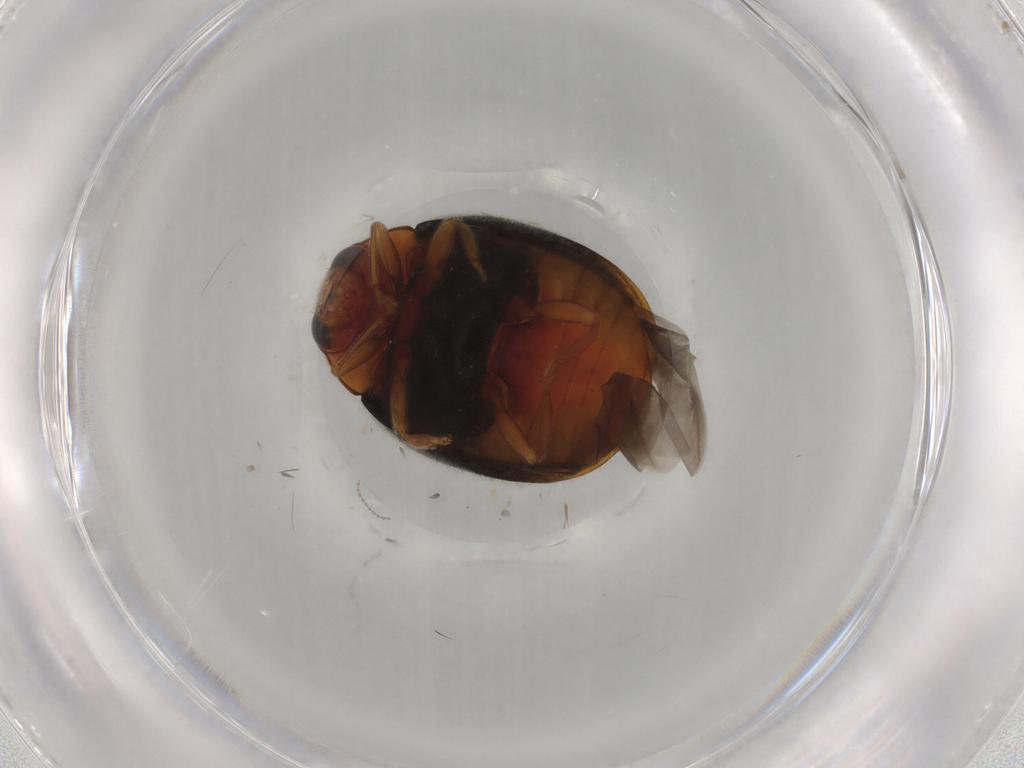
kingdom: Animalia
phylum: Arthropoda
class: Insecta
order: Coleoptera
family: Coccinellidae
